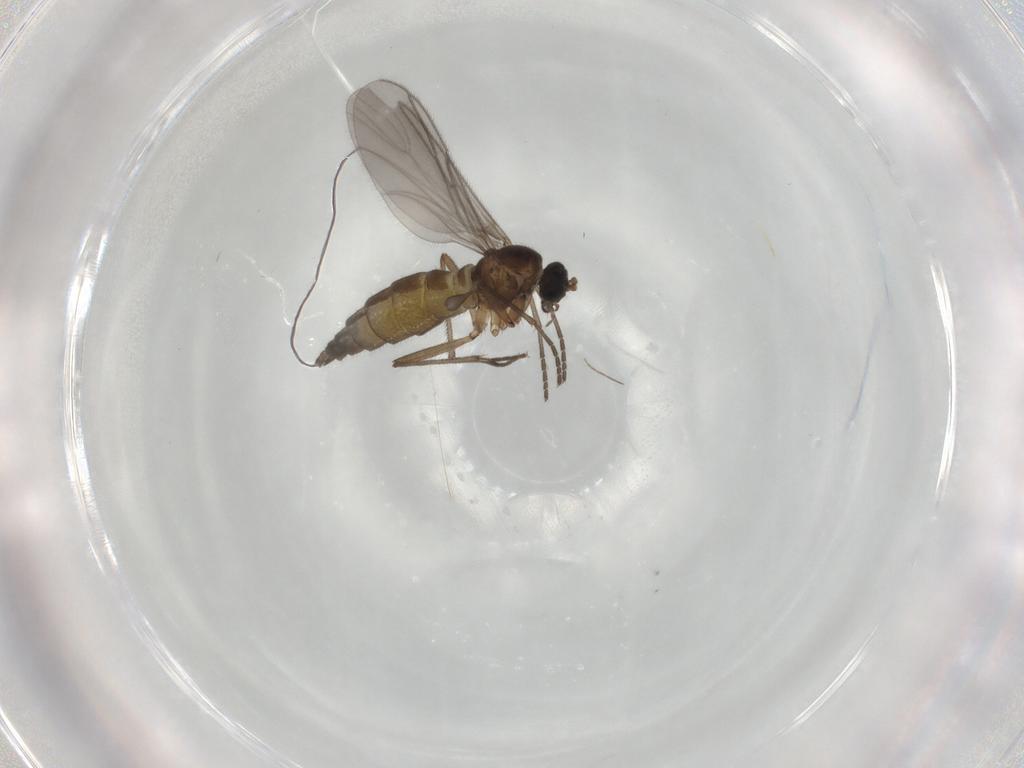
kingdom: Animalia
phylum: Arthropoda
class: Insecta
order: Diptera
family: Sciaridae
